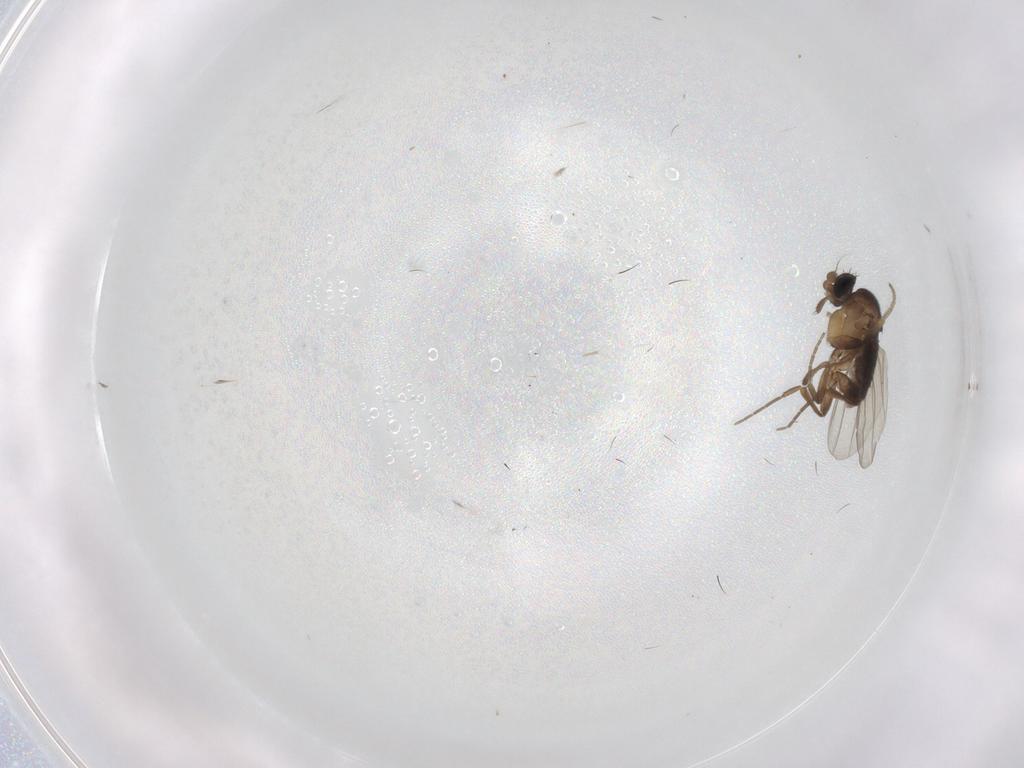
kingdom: Animalia
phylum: Arthropoda
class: Insecta
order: Diptera
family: Phoridae
